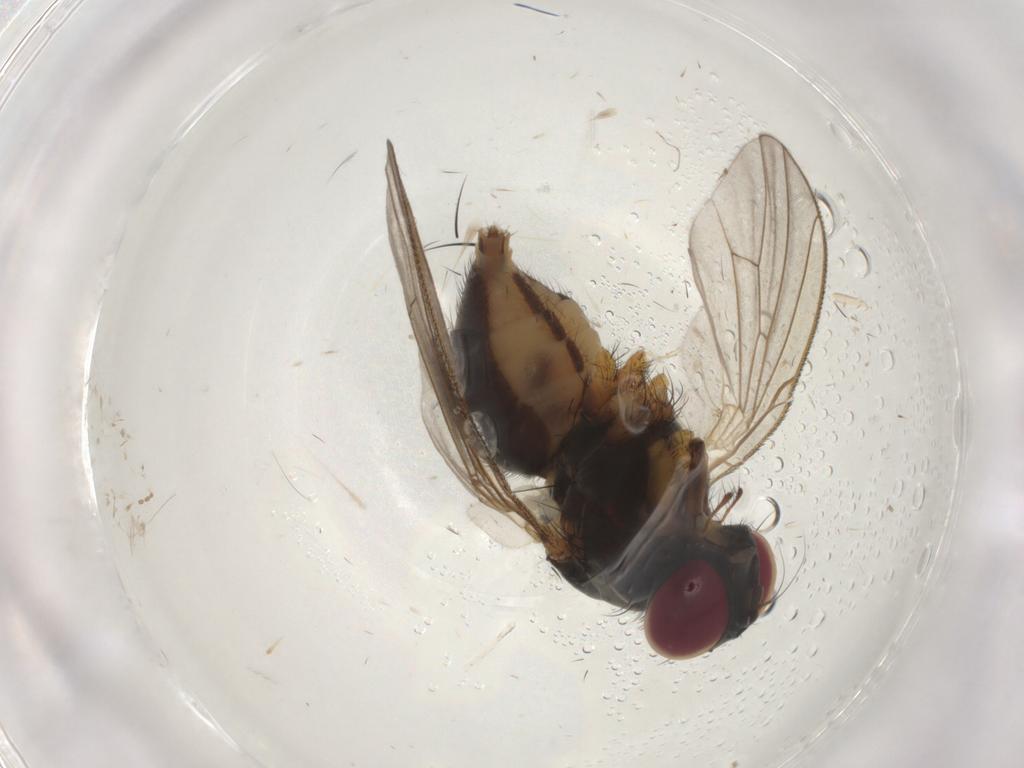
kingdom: Animalia
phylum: Arthropoda
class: Insecta
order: Diptera
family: Muscidae
